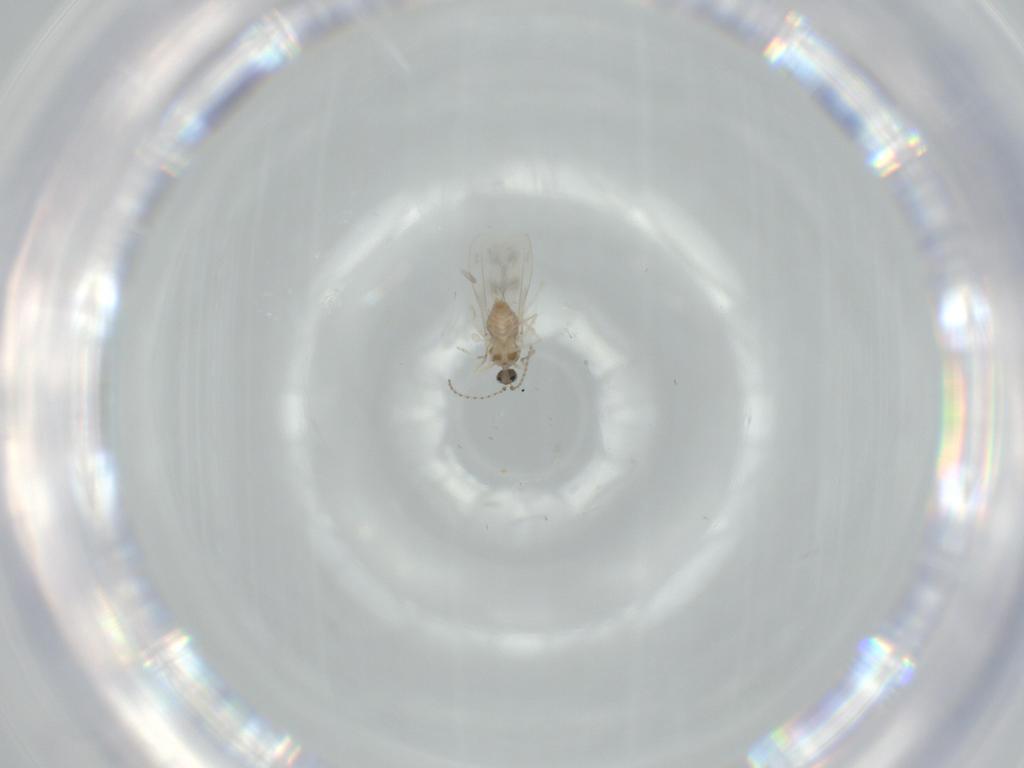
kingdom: Animalia
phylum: Arthropoda
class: Insecta
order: Diptera
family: Cecidomyiidae
